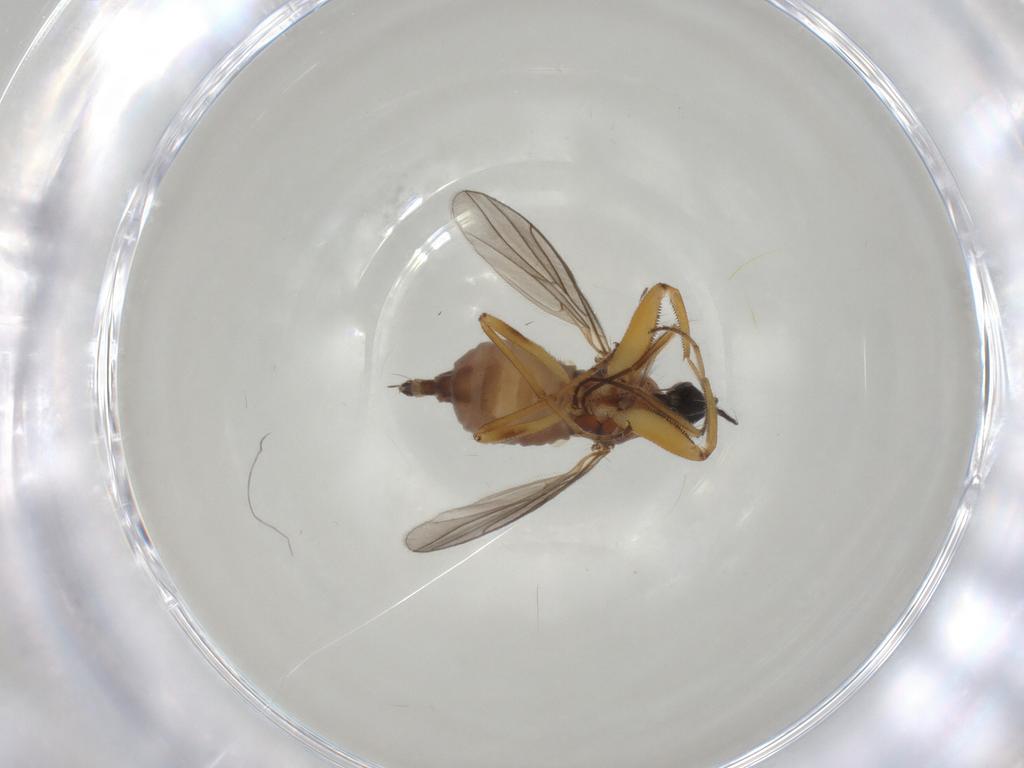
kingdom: Animalia
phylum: Arthropoda
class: Insecta
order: Diptera
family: Hybotidae
